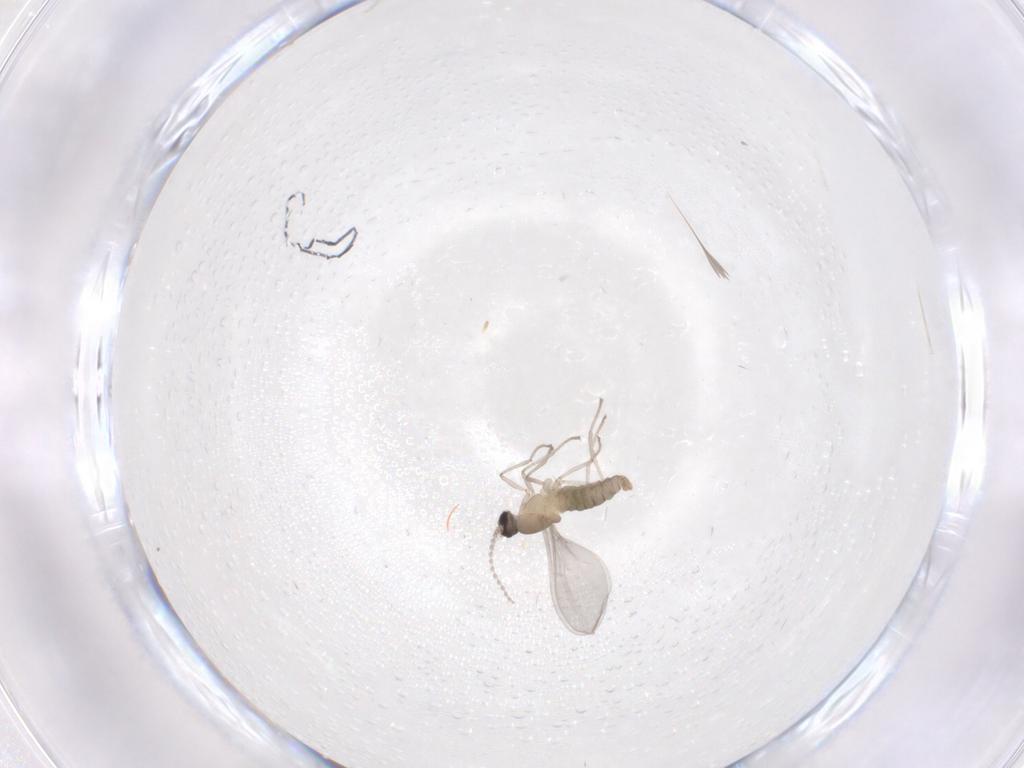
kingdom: Animalia
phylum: Arthropoda
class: Insecta
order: Diptera
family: Cecidomyiidae
